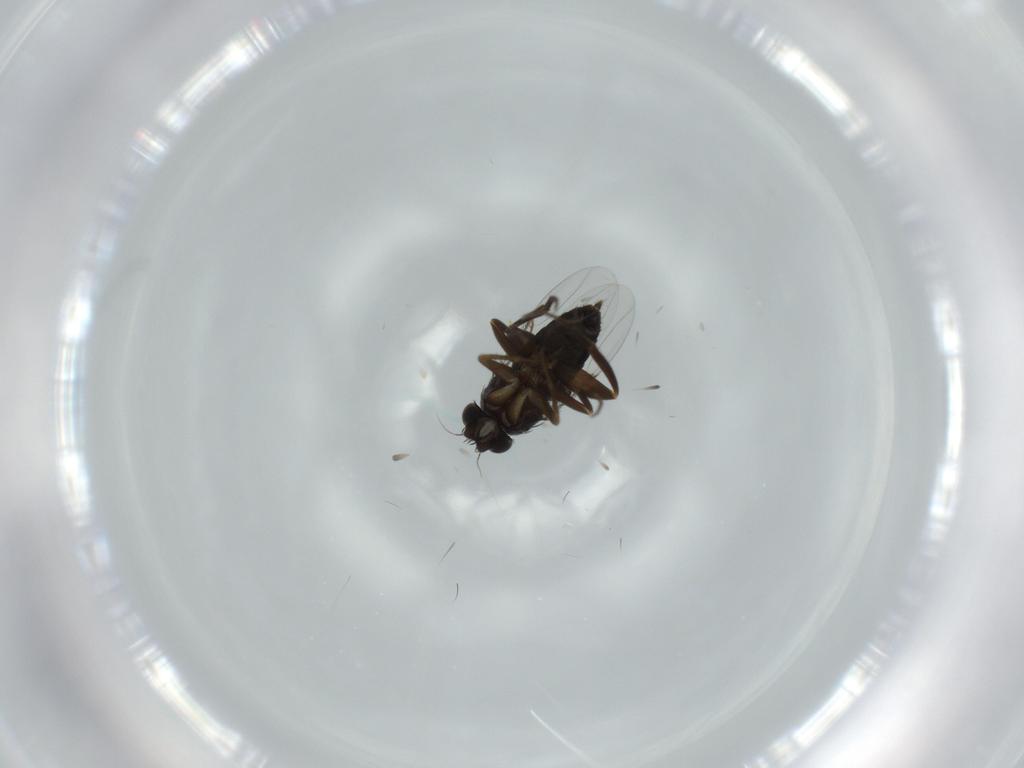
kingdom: Animalia
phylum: Arthropoda
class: Insecta
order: Diptera
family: Phoridae
